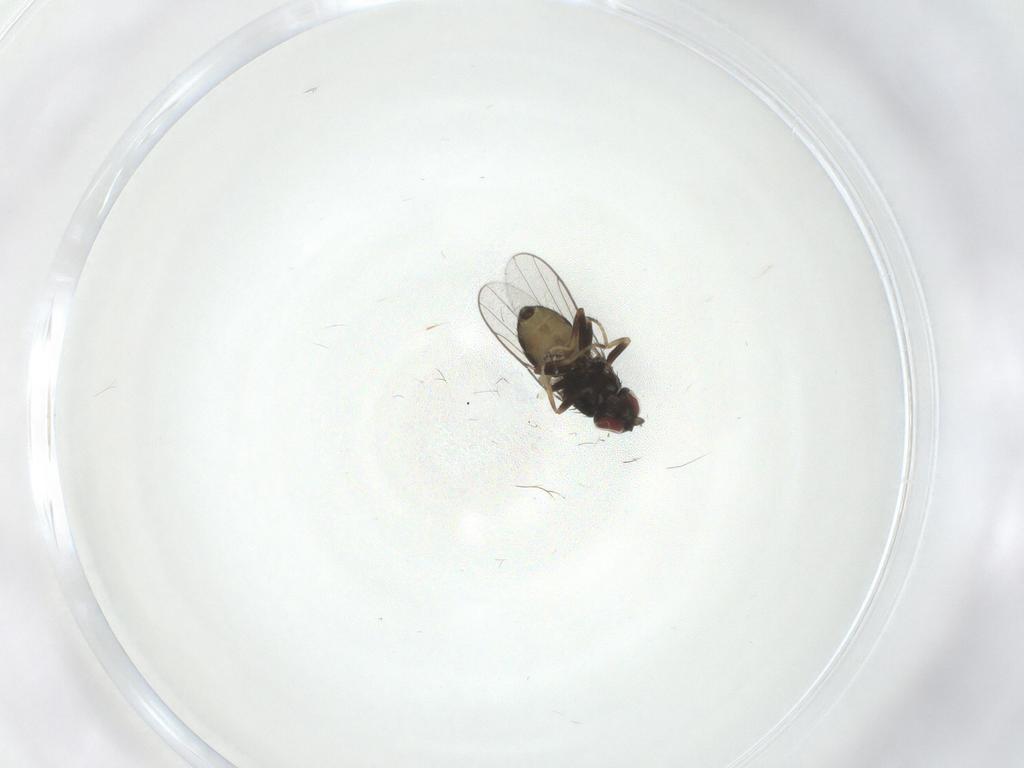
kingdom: Animalia
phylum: Arthropoda
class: Insecta
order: Diptera
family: Chloropidae
